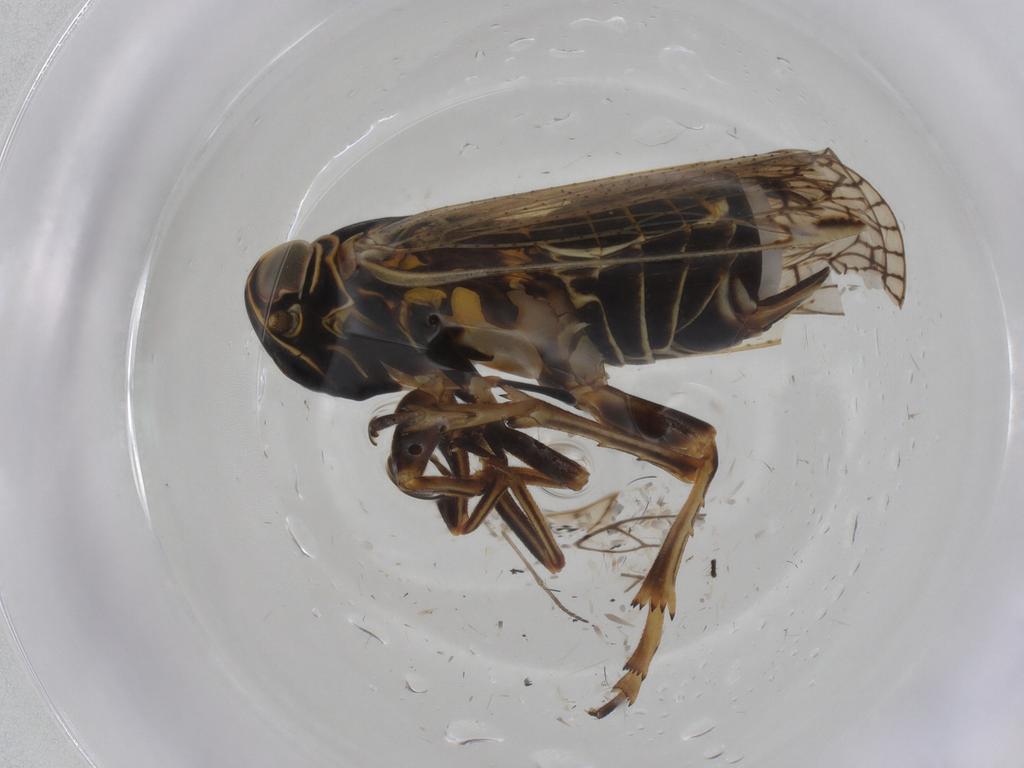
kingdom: Animalia
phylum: Arthropoda
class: Insecta
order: Hemiptera
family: Cixiidae
